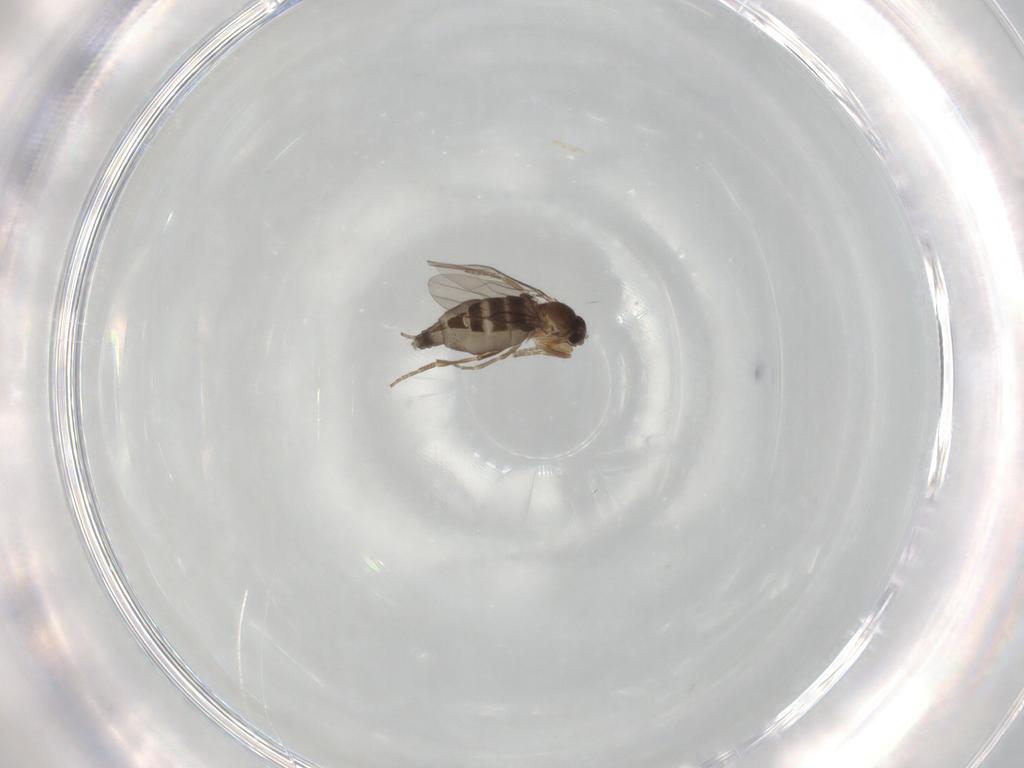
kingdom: Animalia
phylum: Arthropoda
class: Insecta
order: Diptera
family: Phoridae
